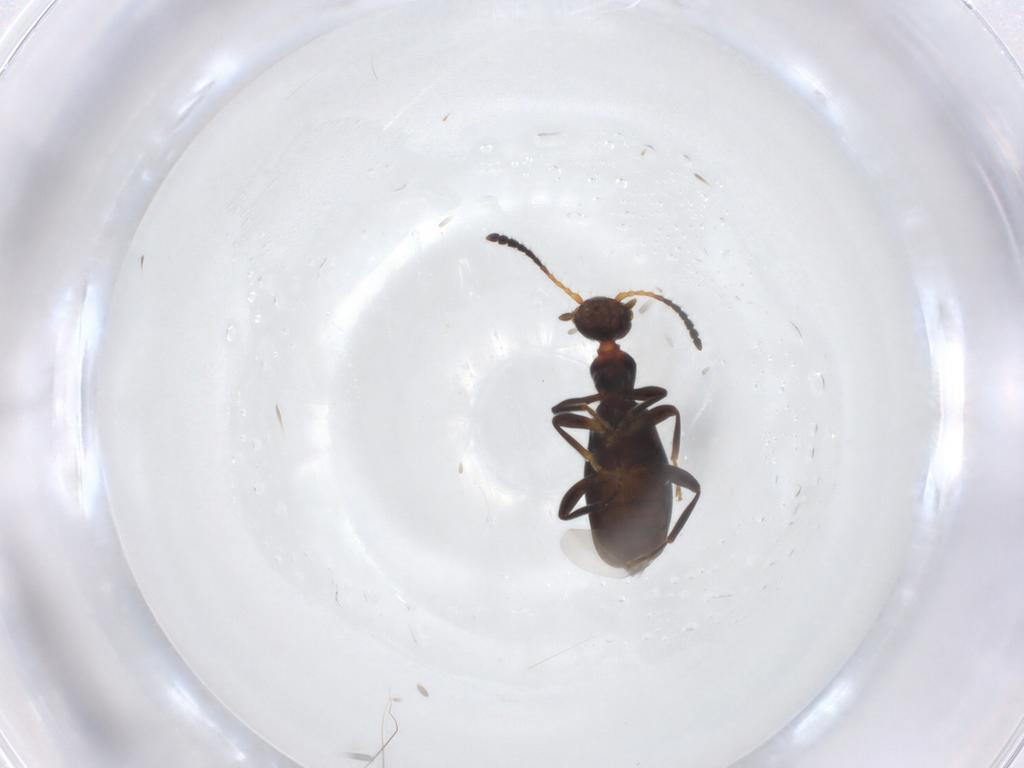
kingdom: Animalia
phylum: Arthropoda
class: Insecta
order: Coleoptera
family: Anthicidae
